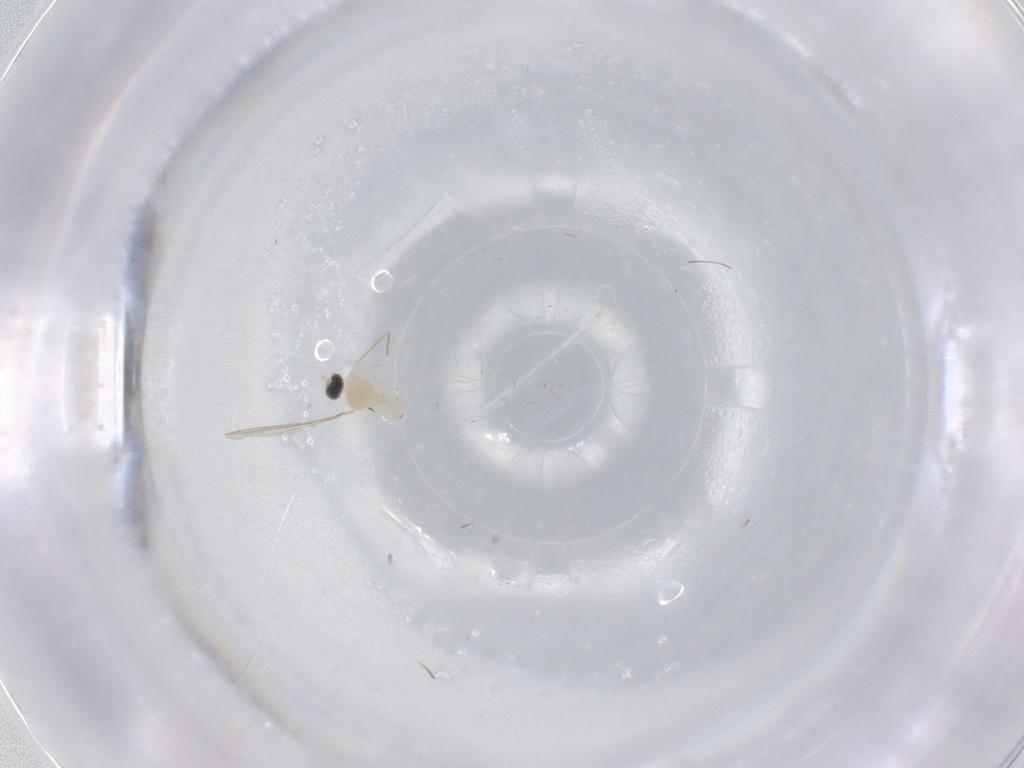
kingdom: Animalia
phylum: Arthropoda
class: Insecta
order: Diptera
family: Cecidomyiidae
